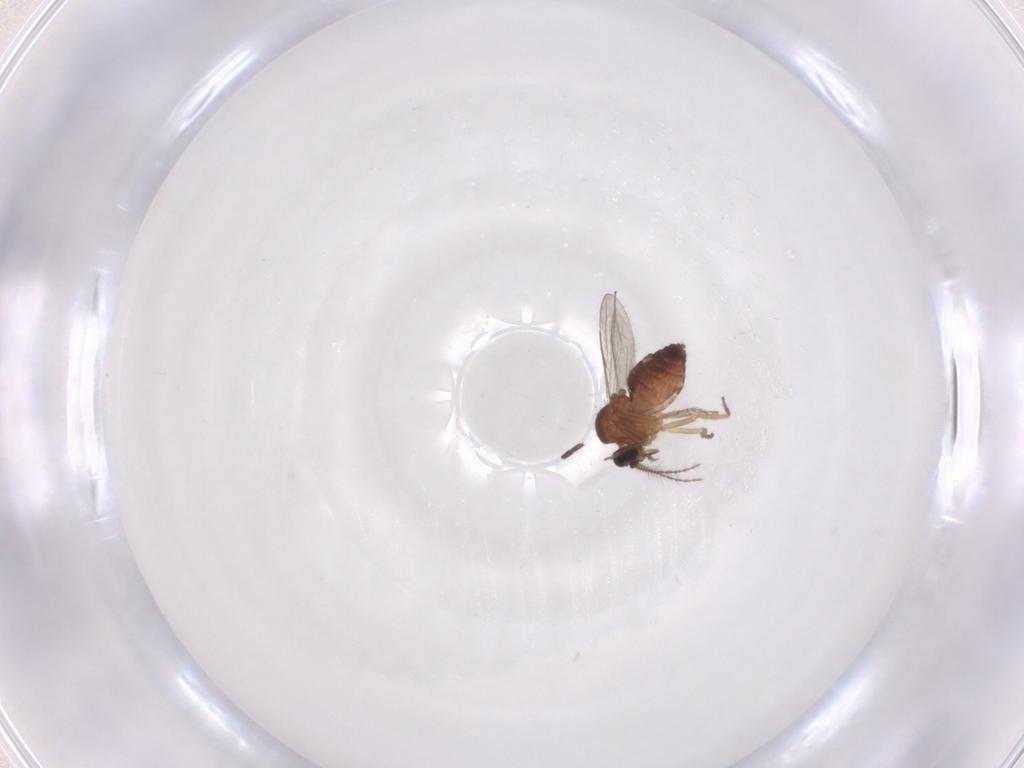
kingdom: Animalia
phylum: Arthropoda
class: Insecta
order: Diptera
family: Ceratopogonidae
